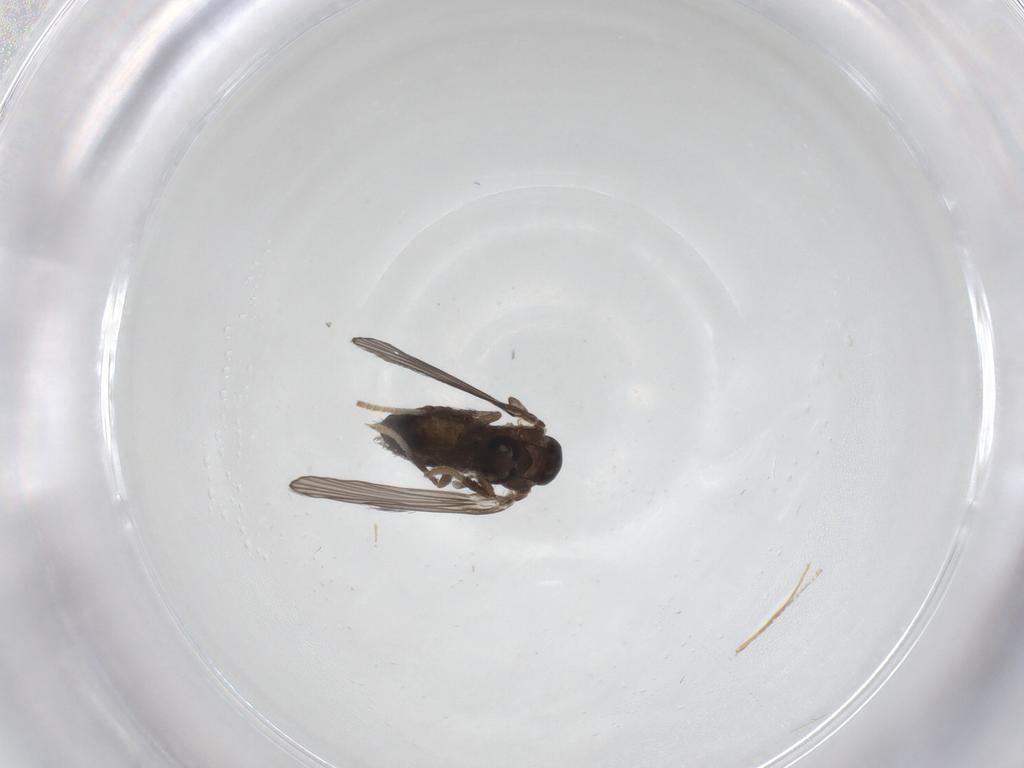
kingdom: Animalia
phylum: Arthropoda
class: Insecta
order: Diptera
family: Psychodidae
